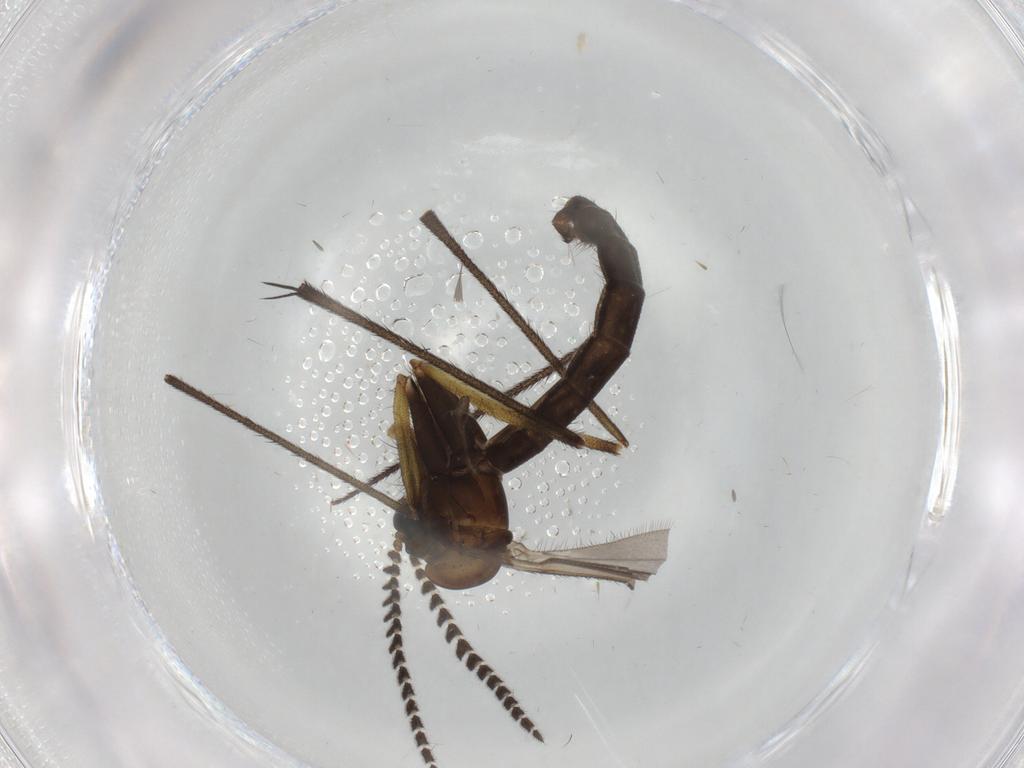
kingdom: Animalia
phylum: Arthropoda
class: Insecta
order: Diptera
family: Ceratopogonidae
